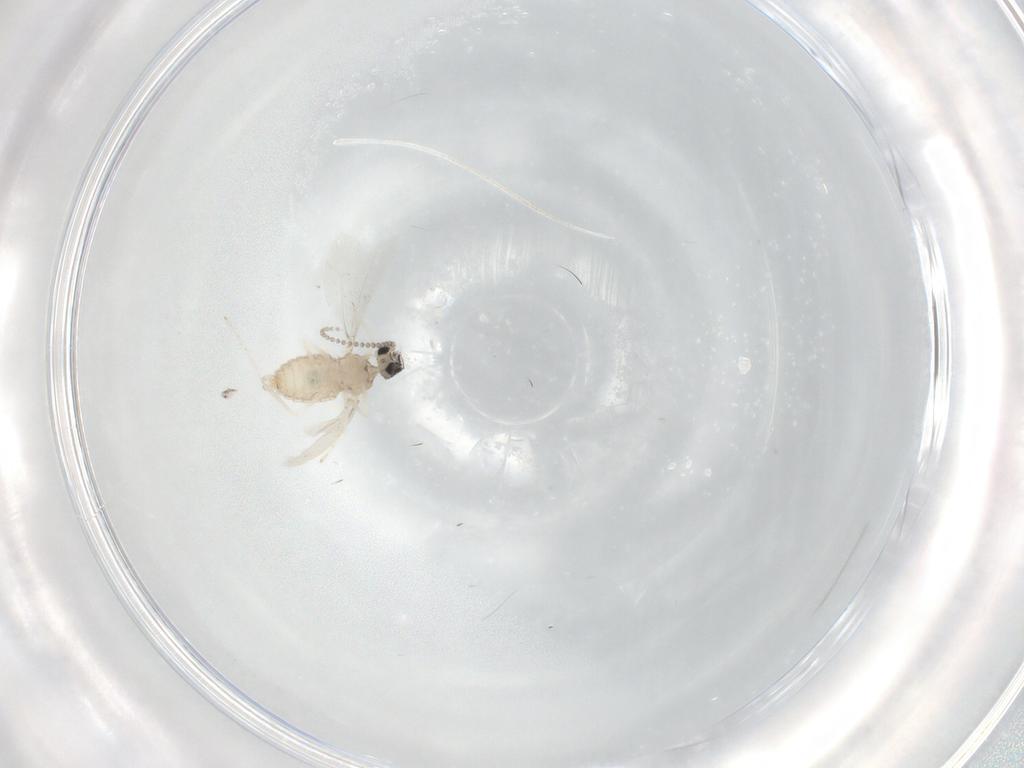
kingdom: Animalia
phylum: Arthropoda
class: Insecta
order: Diptera
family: Cecidomyiidae
